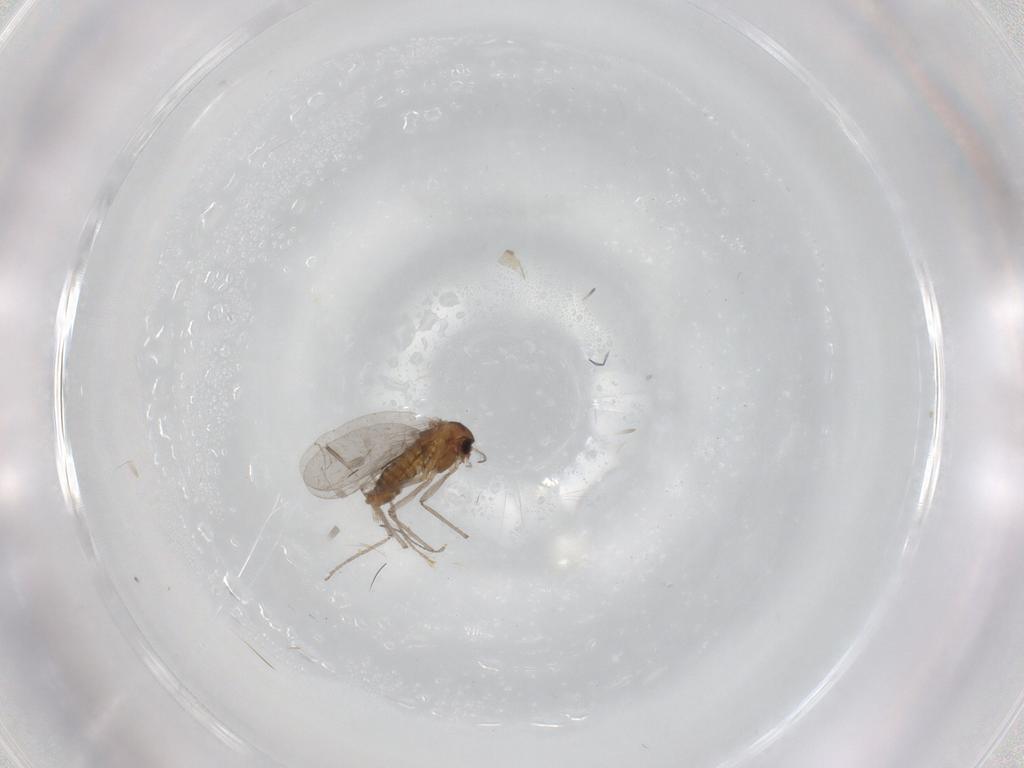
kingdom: Animalia
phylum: Arthropoda
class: Insecta
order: Diptera
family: Chironomidae
